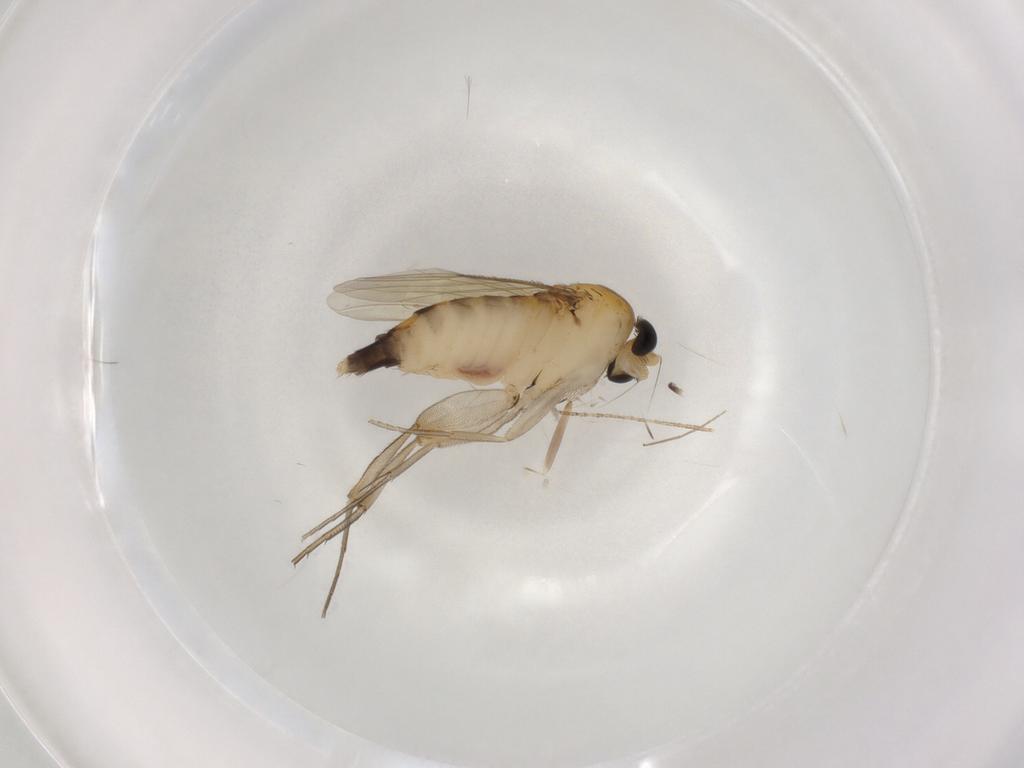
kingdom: Animalia
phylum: Arthropoda
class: Insecta
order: Diptera
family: Phoridae
